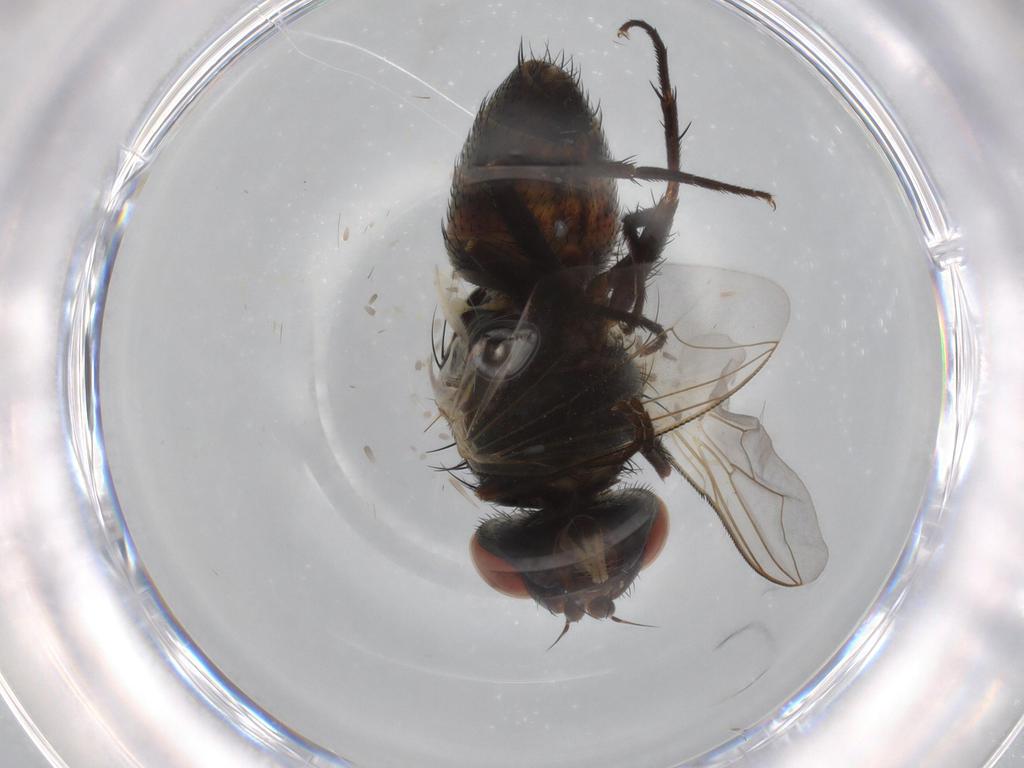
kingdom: Animalia
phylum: Arthropoda
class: Insecta
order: Diptera
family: Sarcophagidae
